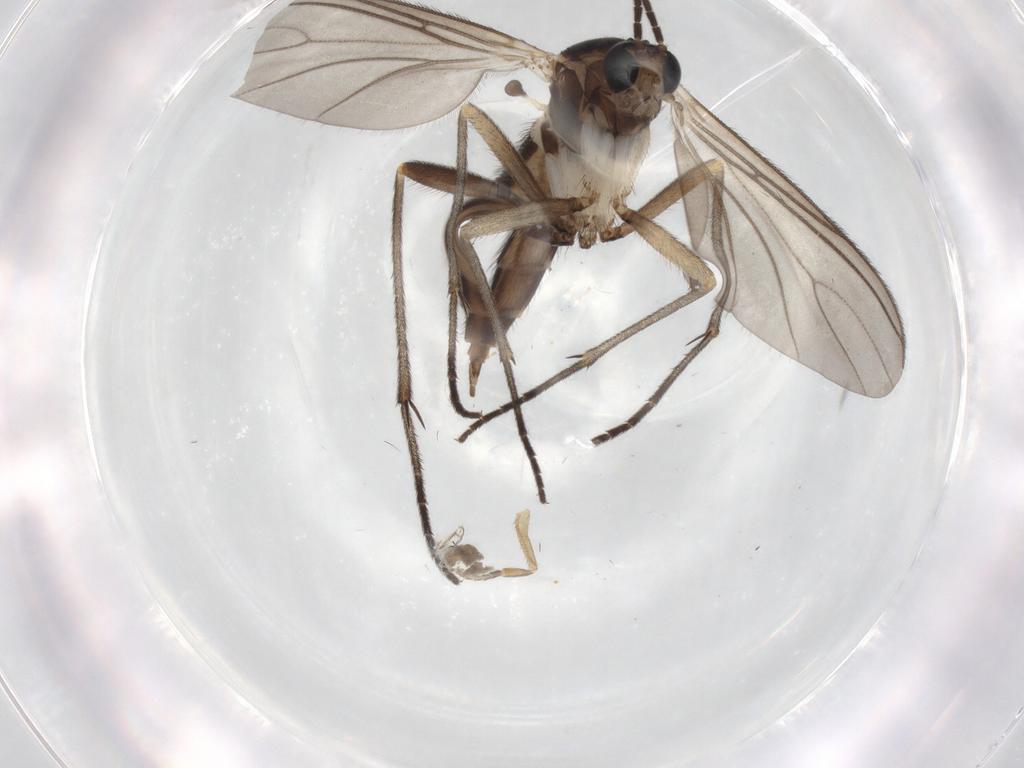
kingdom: Animalia
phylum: Arthropoda
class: Insecta
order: Diptera
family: Sciaridae
